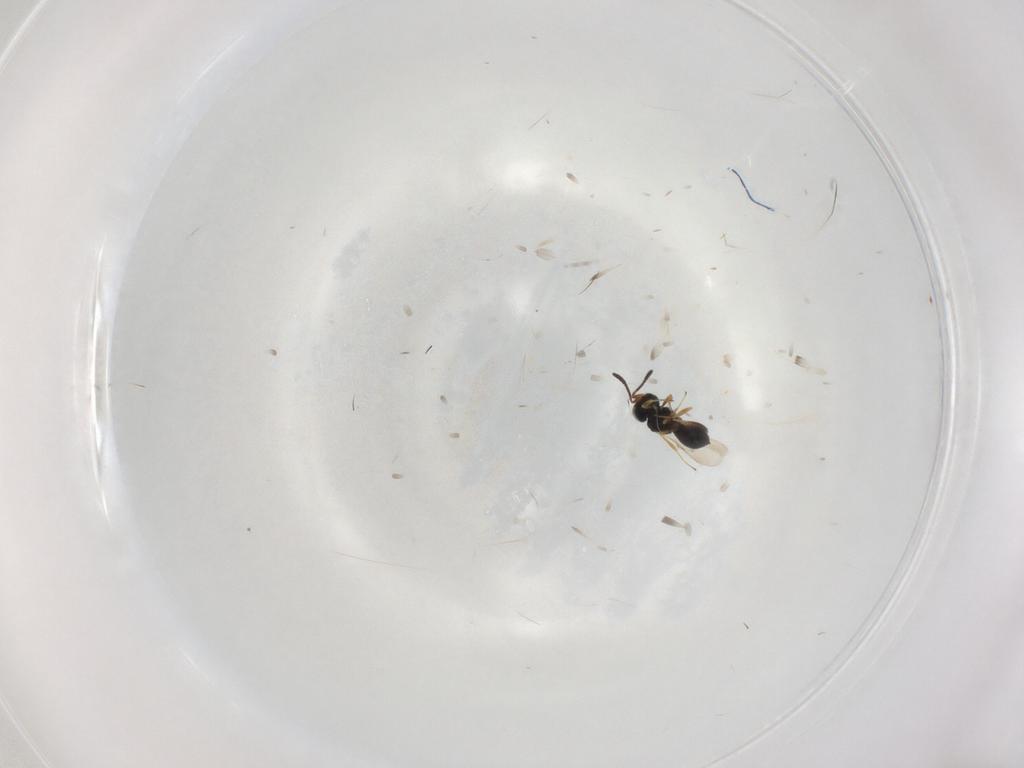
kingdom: Animalia
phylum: Arthropoda
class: Insecta
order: Hymenoptera
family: Scelionidae
